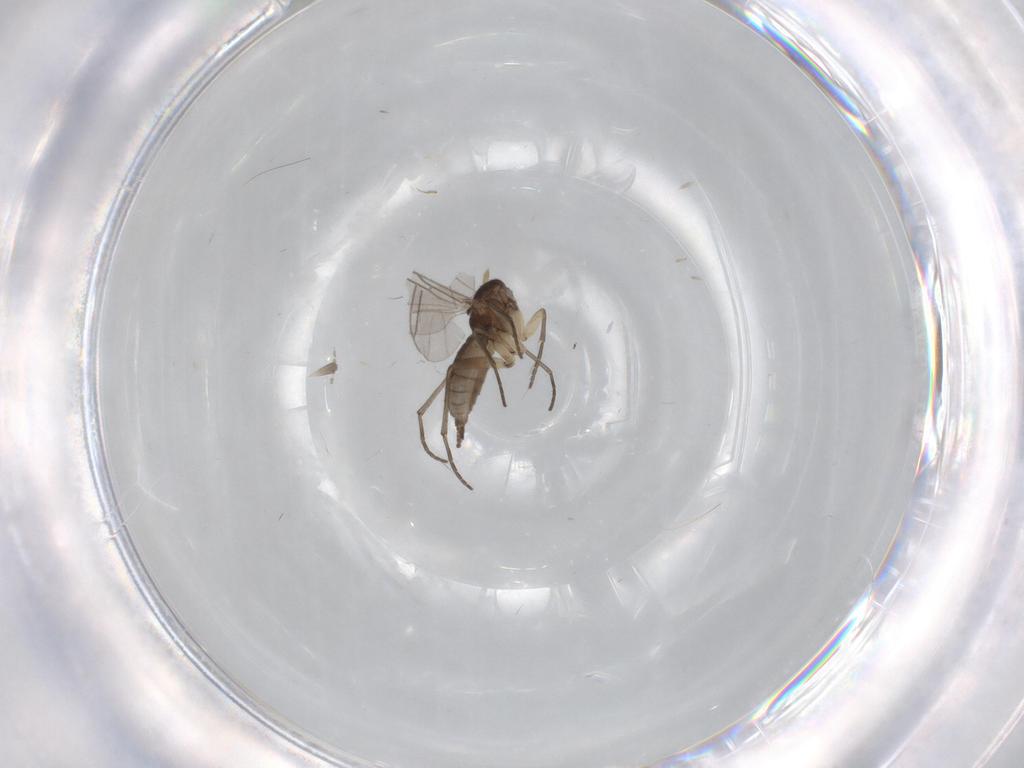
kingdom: Animalia
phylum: Arthropoda
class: Insecta
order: Diptera
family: Sciaridae
